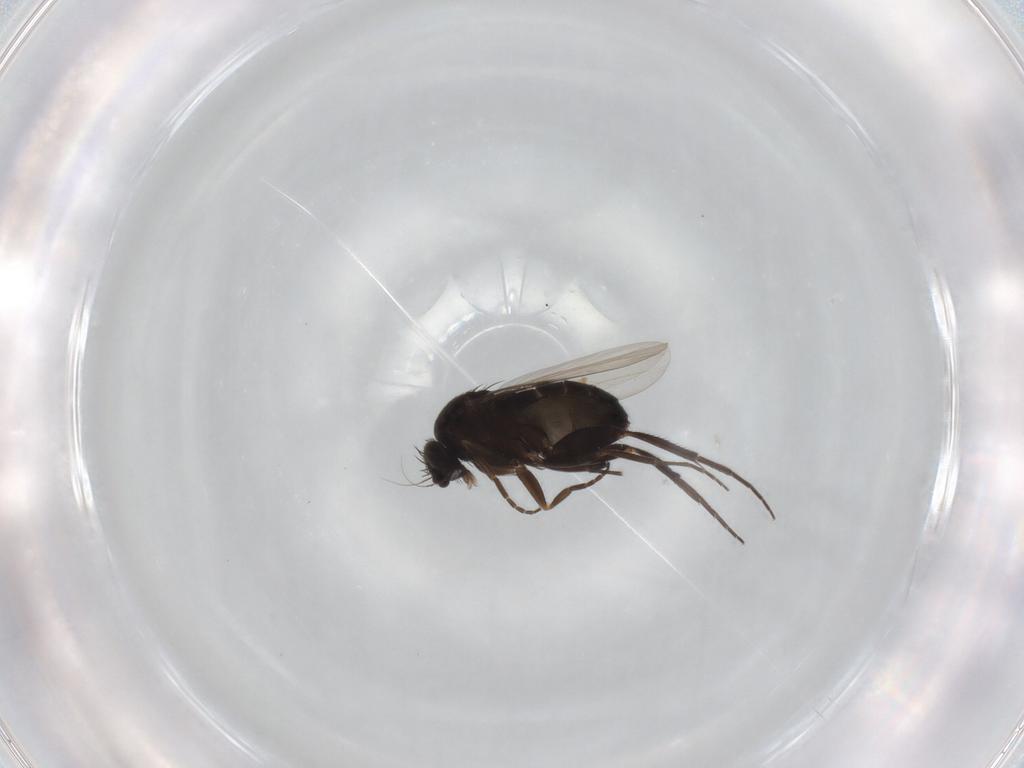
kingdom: Animalia
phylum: Arthropoda
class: Insecta
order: Diptera
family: Phoridae
